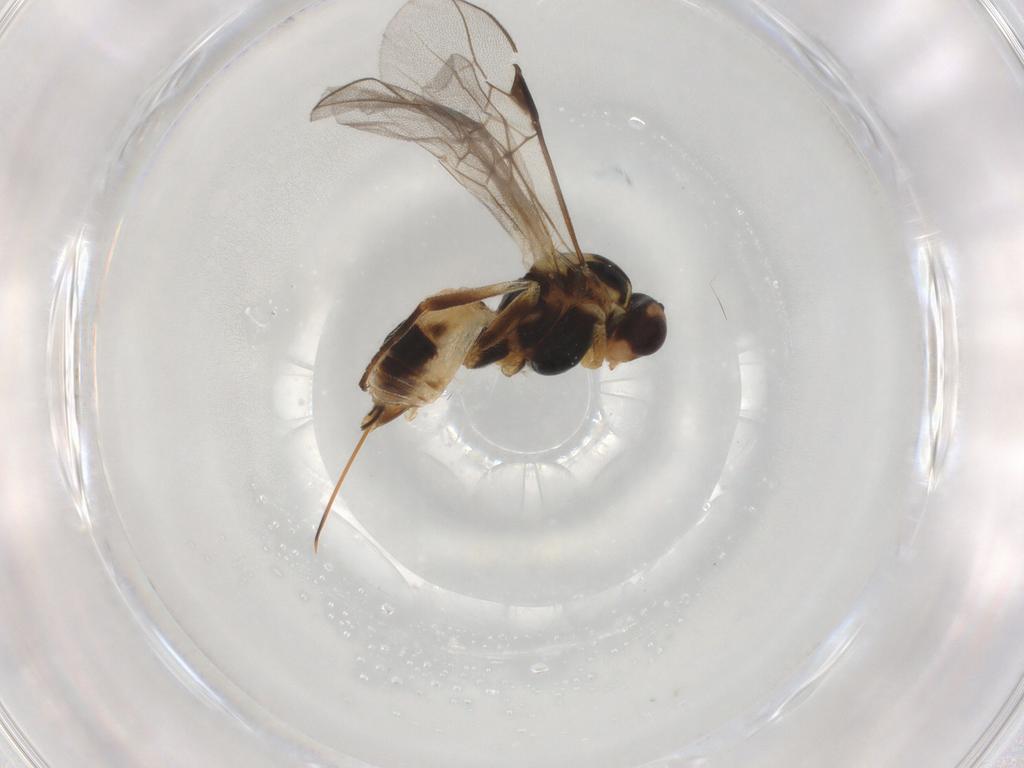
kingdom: Animalia
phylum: Arthropoda
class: Insecta
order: Hymenoptera
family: Braconidae
